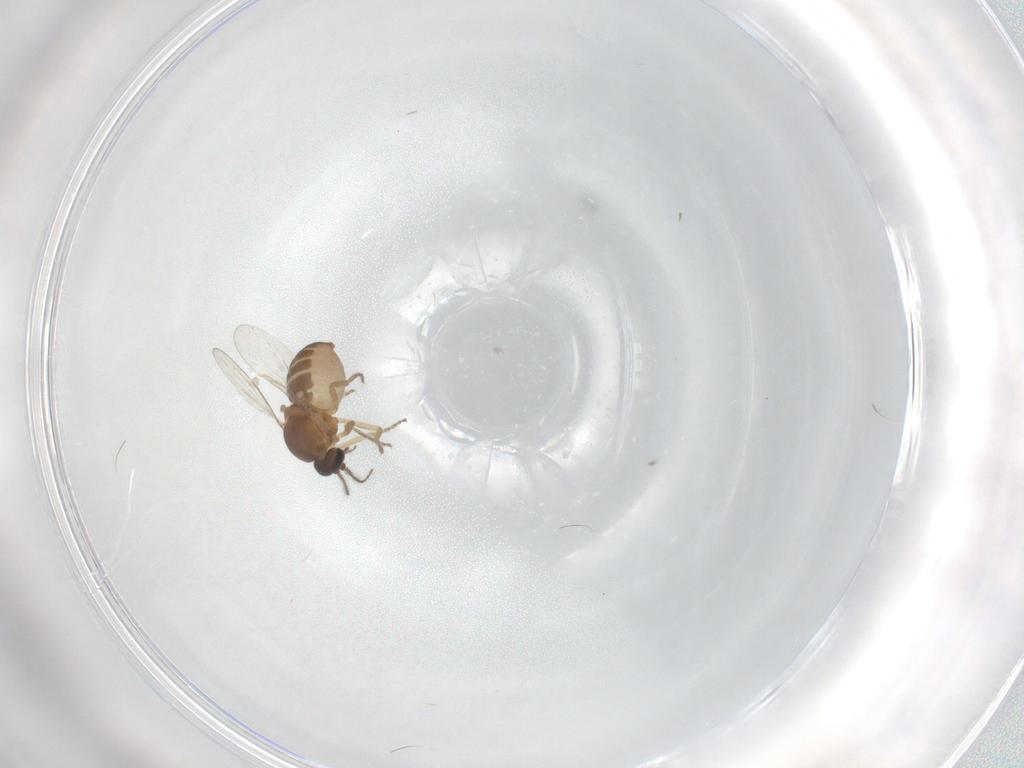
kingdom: Animalia
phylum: Arthropoda
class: Insecta
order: Diptera
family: Ceratopogonidae
